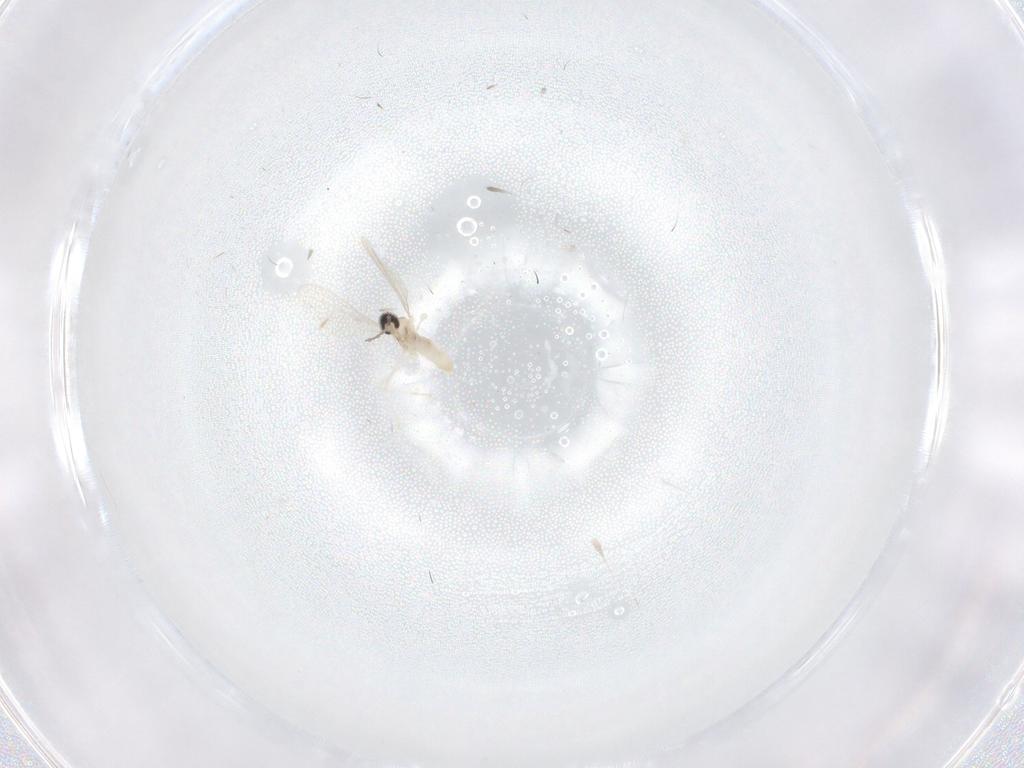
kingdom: Animalia
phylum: Arthropoda
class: Insecta
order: Diptera
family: Cecidomyiidae
